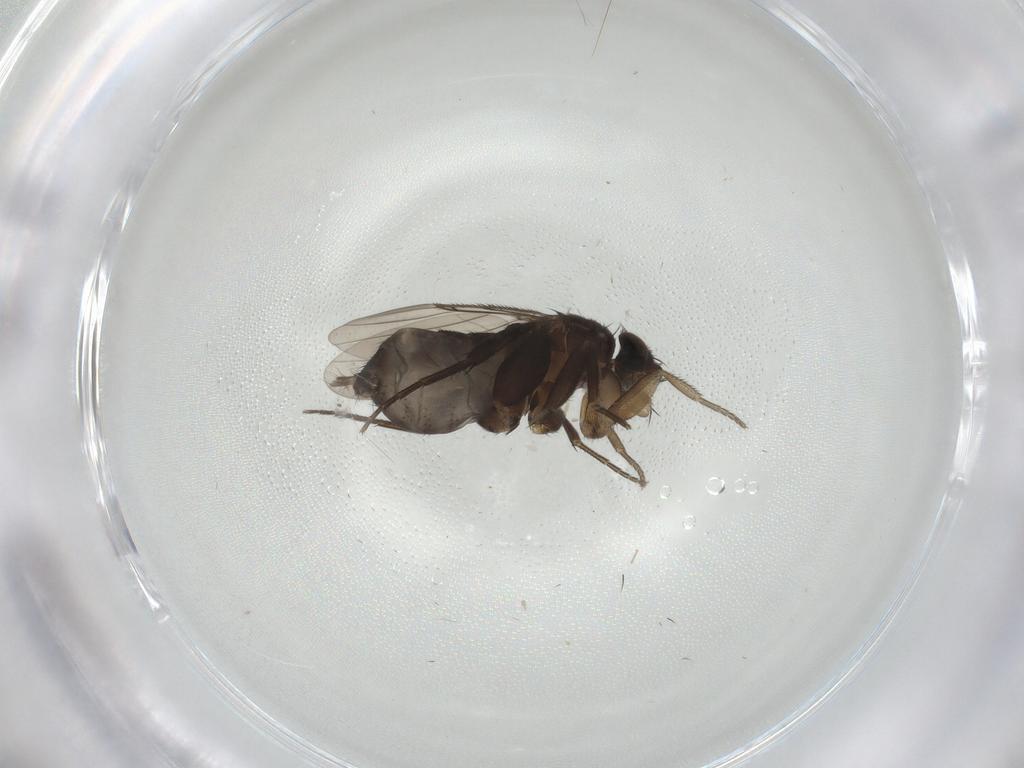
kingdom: Animalia
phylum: Arthropoda
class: Insecta
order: Diptera
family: Phoridae
